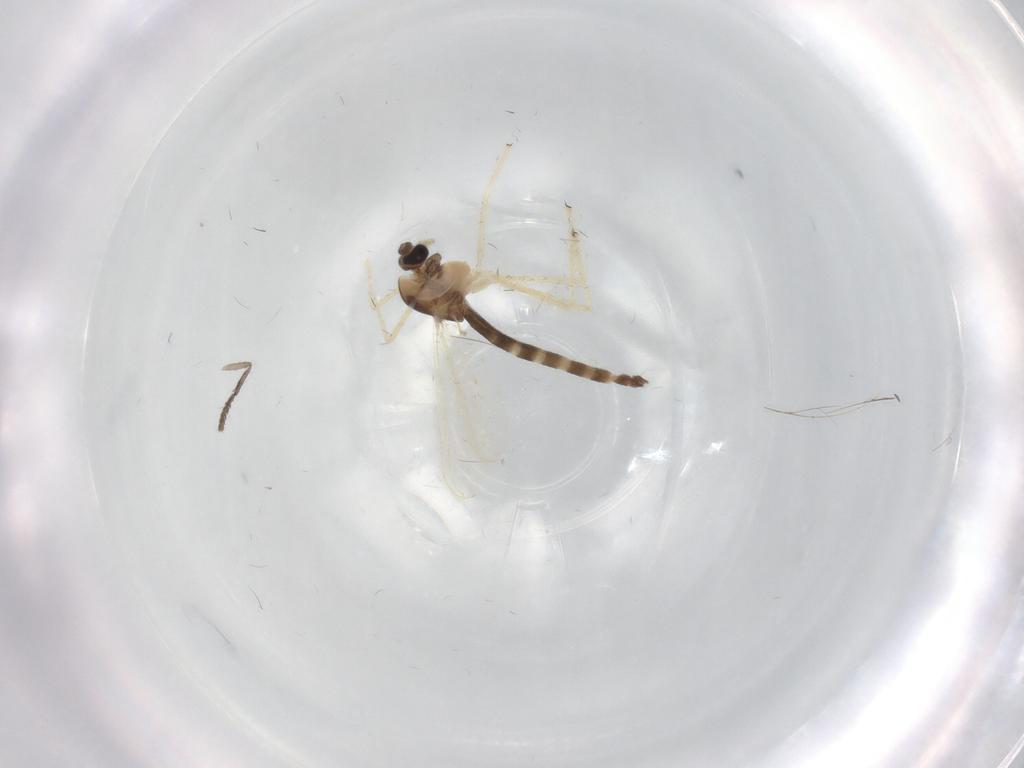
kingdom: Animalia
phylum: Arthropoda
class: Insecta
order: Diptera
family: Chironomidae
